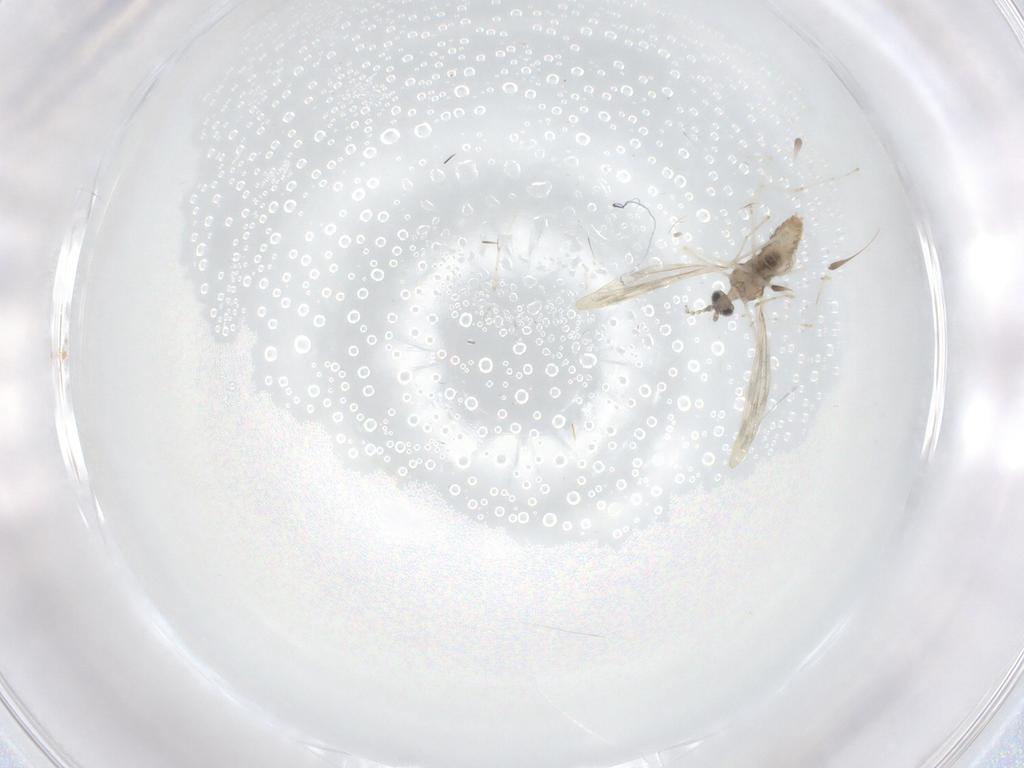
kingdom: Animalia
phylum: Arthropoda
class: Insecta
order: Diptera
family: Cecidomyiidae
